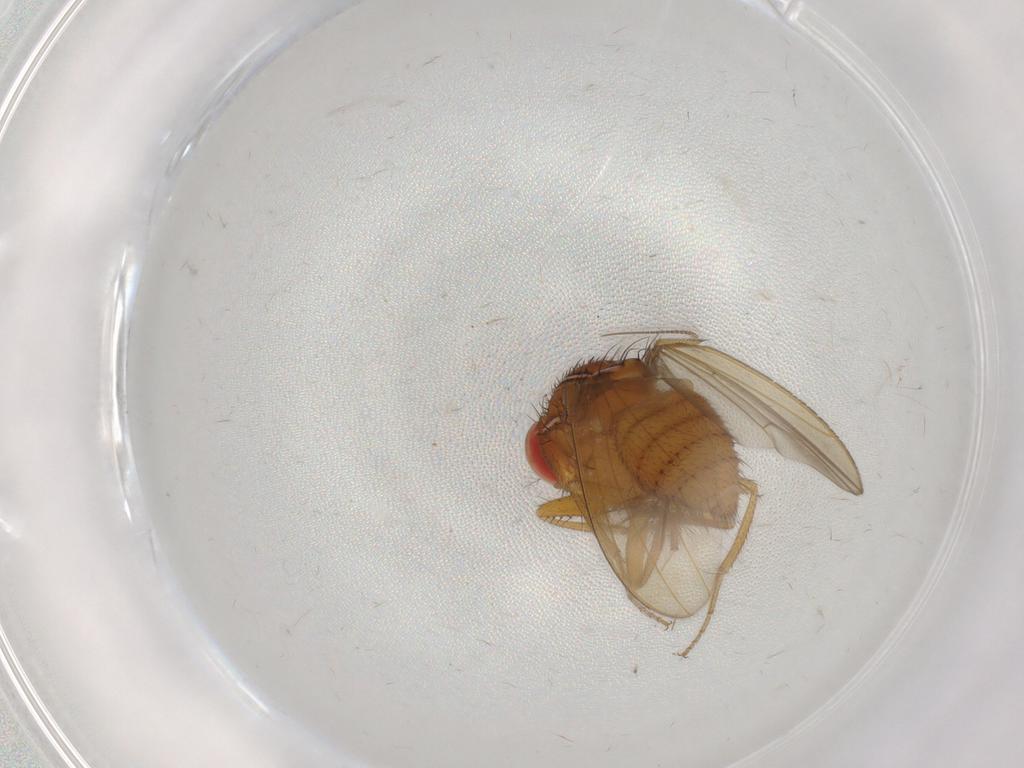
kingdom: Animalia
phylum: Arthropoda
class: Insecta
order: Diptera
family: Drosophilidae
